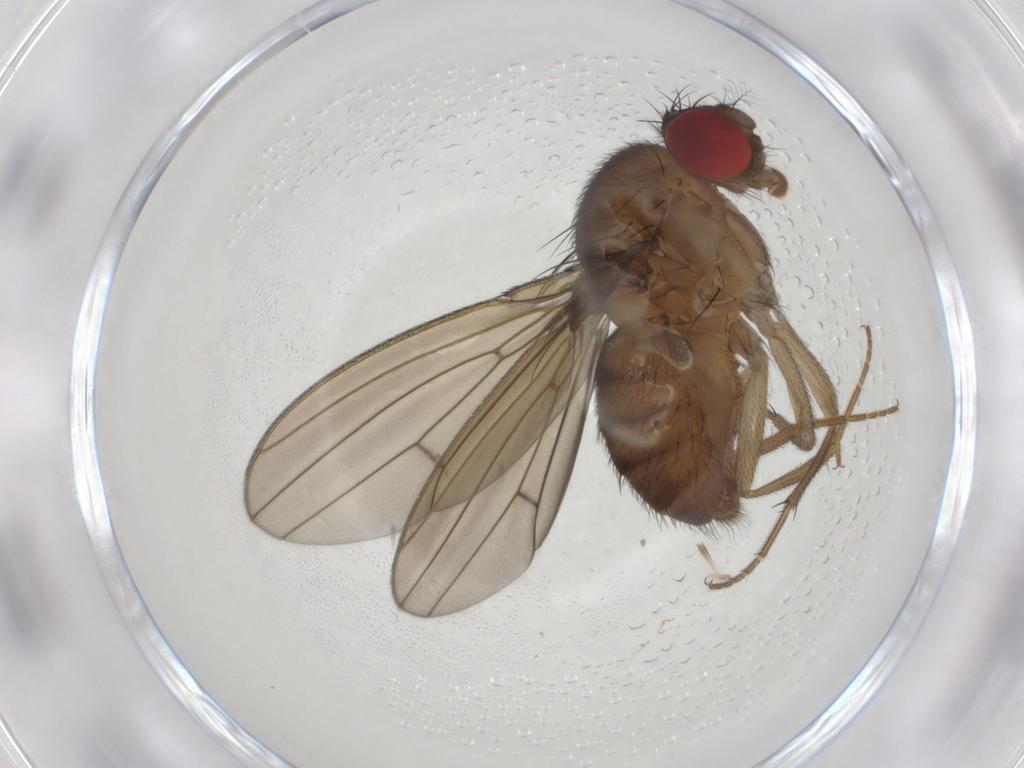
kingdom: Animalia
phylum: Arthropoda
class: Insecta
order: Diptera
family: Drosophilidae
